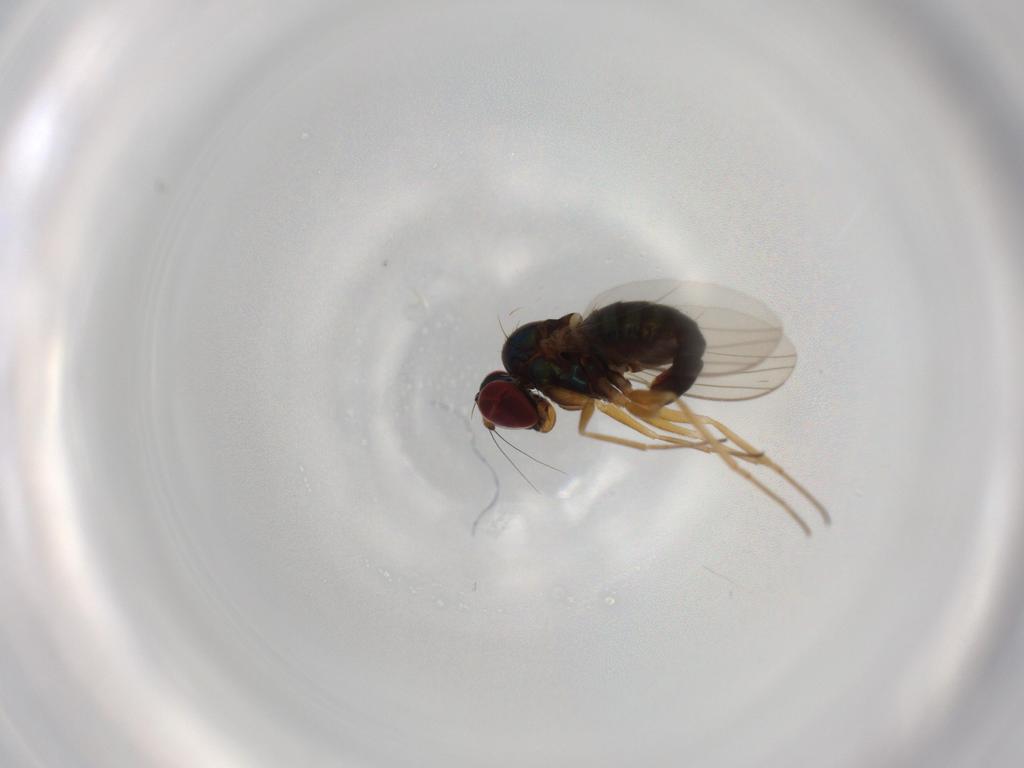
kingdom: Animalia
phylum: Arthropoda
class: Insecta
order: Diptera
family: Dolichopodidae
